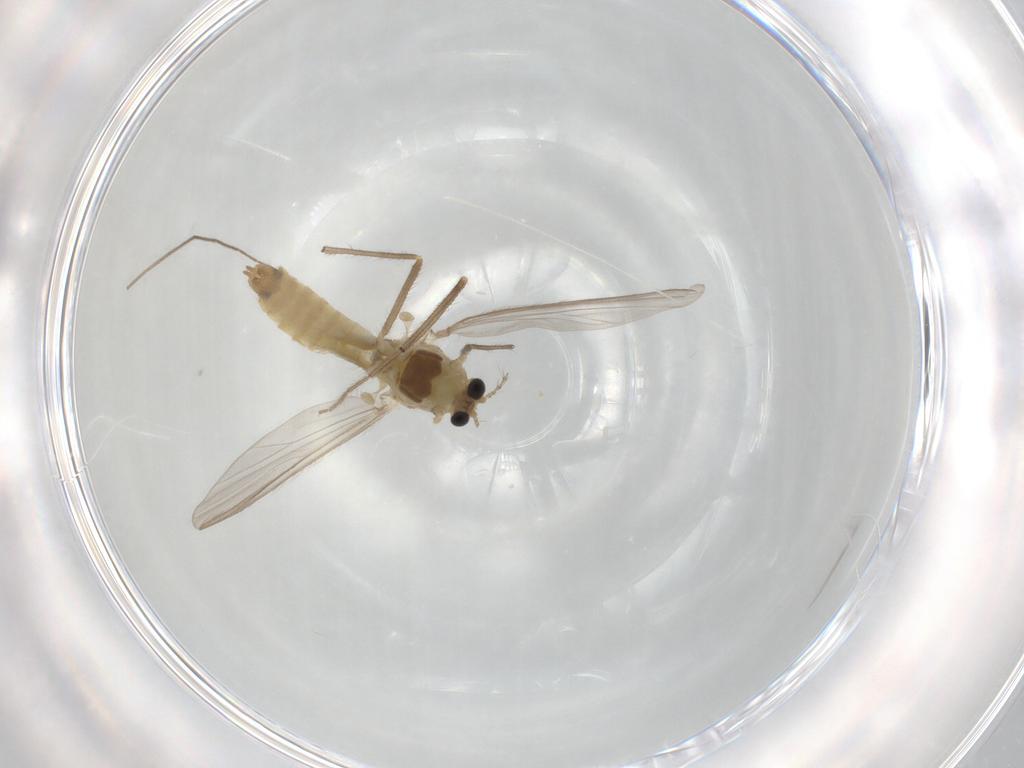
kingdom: Animalia
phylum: Arthropoda
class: Insecta
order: Diptera
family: Chironomidae
